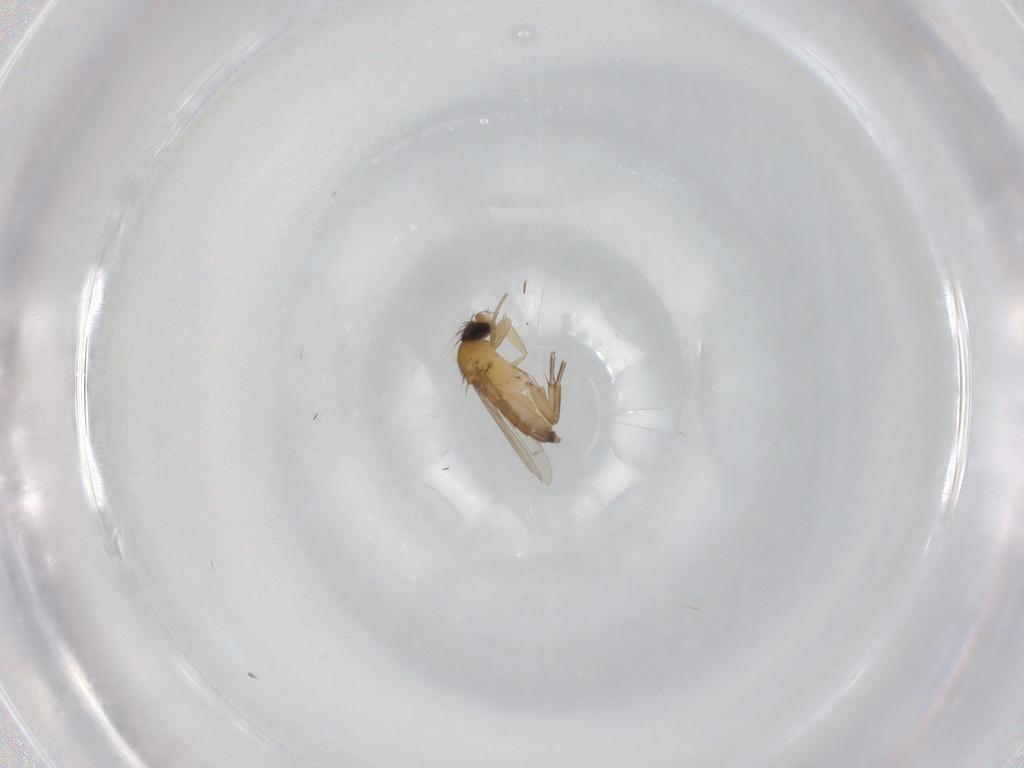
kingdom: Animalia
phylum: Arthropoda
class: Insecta
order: Diptera
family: Phoridae
